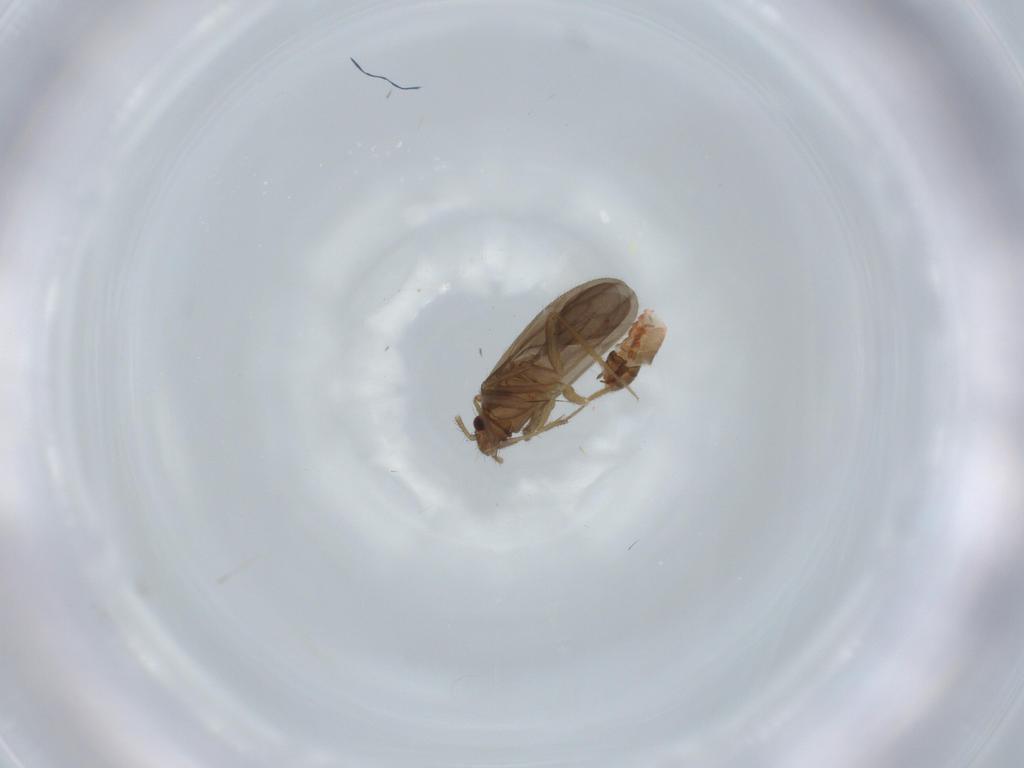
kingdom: Animalia
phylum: Arthropoda
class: Insecta
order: Hemiptera
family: Ceratocombidae
